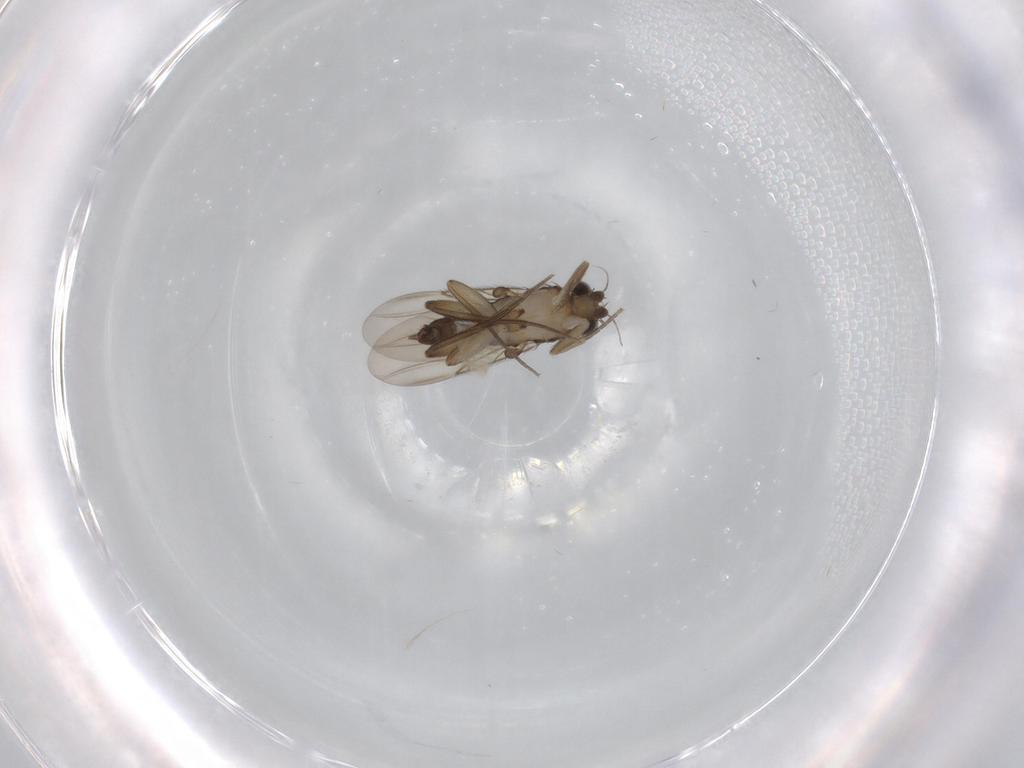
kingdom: Animalia
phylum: Arthropoda
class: Insecta
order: Diptera
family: Phoridae
